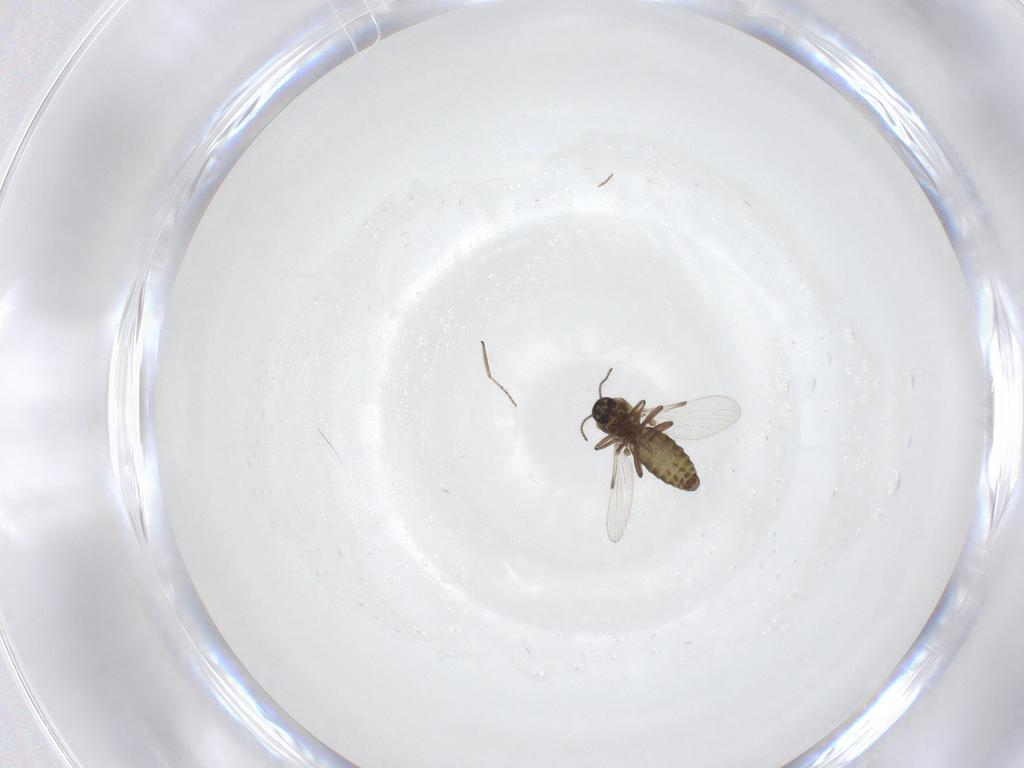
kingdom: Animalia
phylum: Arthropoda
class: Insecta
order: Diptera
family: Ceratopogonidae
